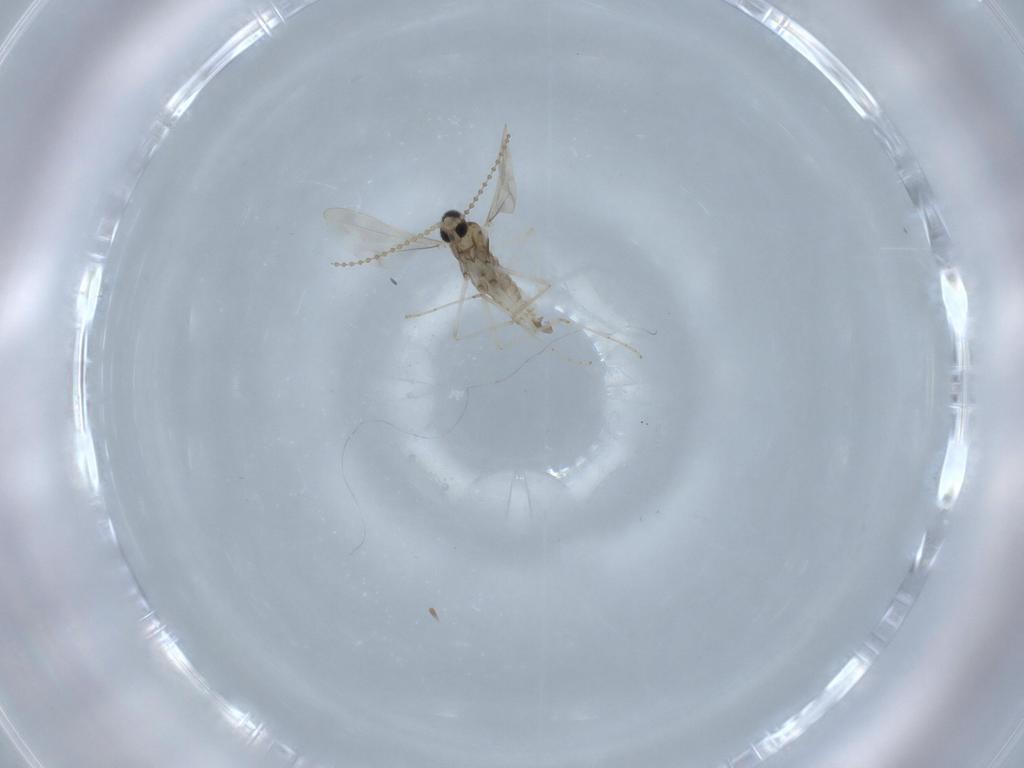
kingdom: Animalia
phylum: Arthropoda
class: Insecta
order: Diptera
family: Cecidomyiidae
